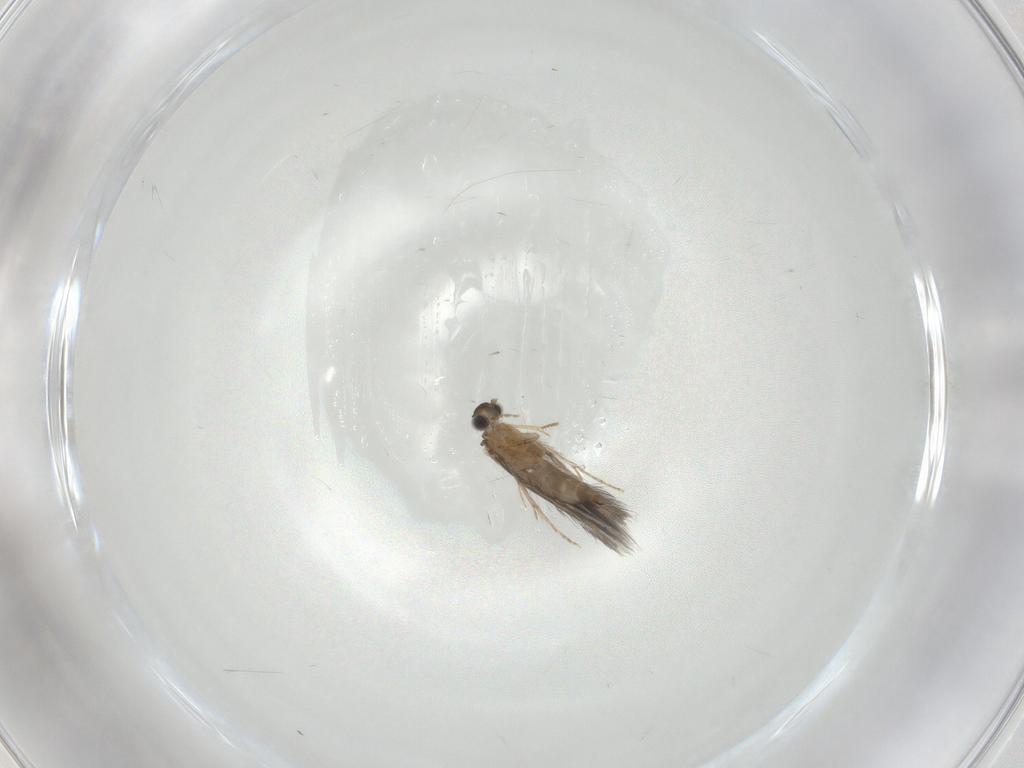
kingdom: Animalia
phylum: Arthropoda
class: Insecta
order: Trichoptera
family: Hydroptilidae
